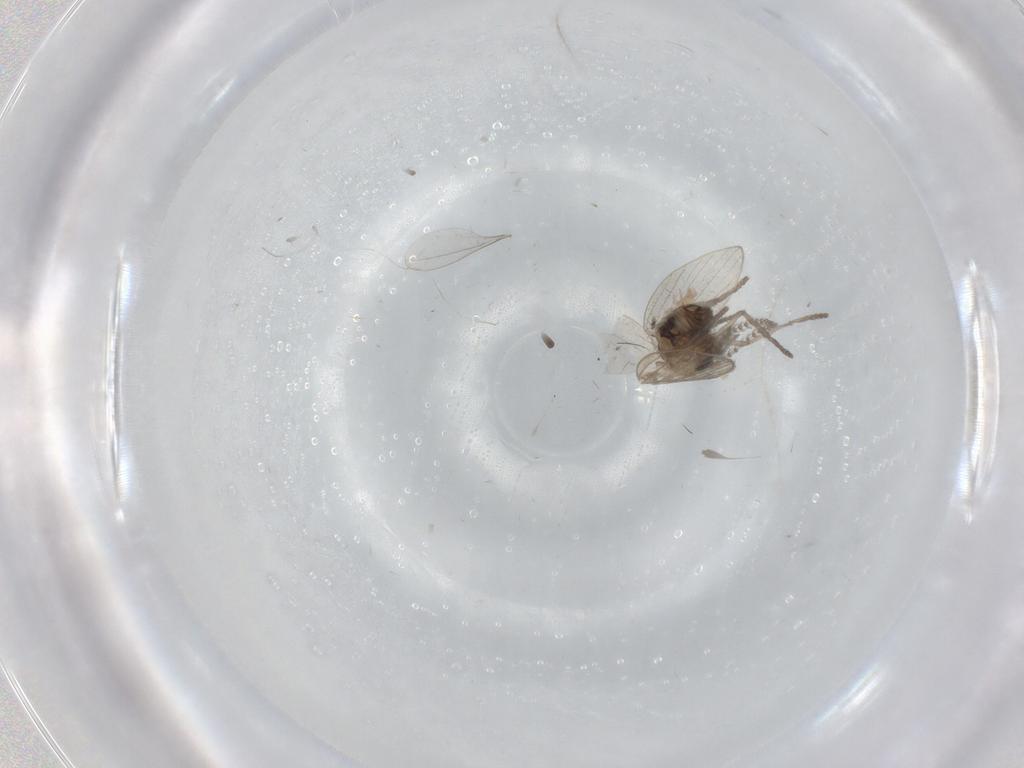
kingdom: Animalia
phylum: Arthropoda
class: Insecta
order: Diptera
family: Psychodidae
